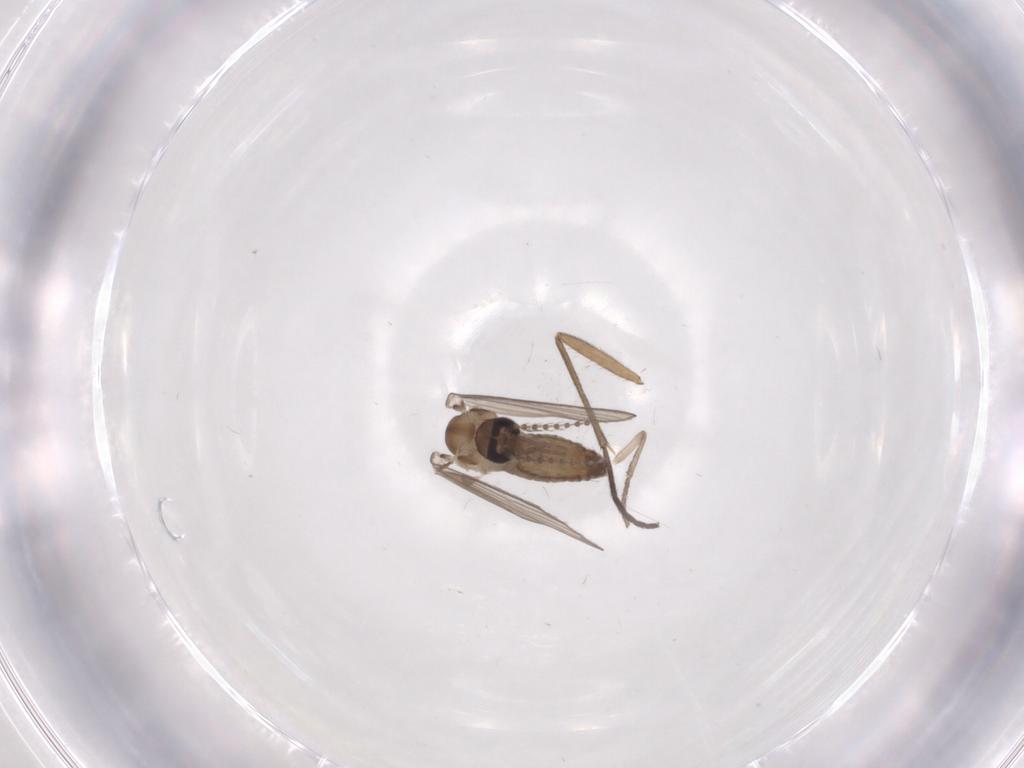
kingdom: Animalia
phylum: Arthropoda
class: Insecta
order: Diptera
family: Psychodidae
